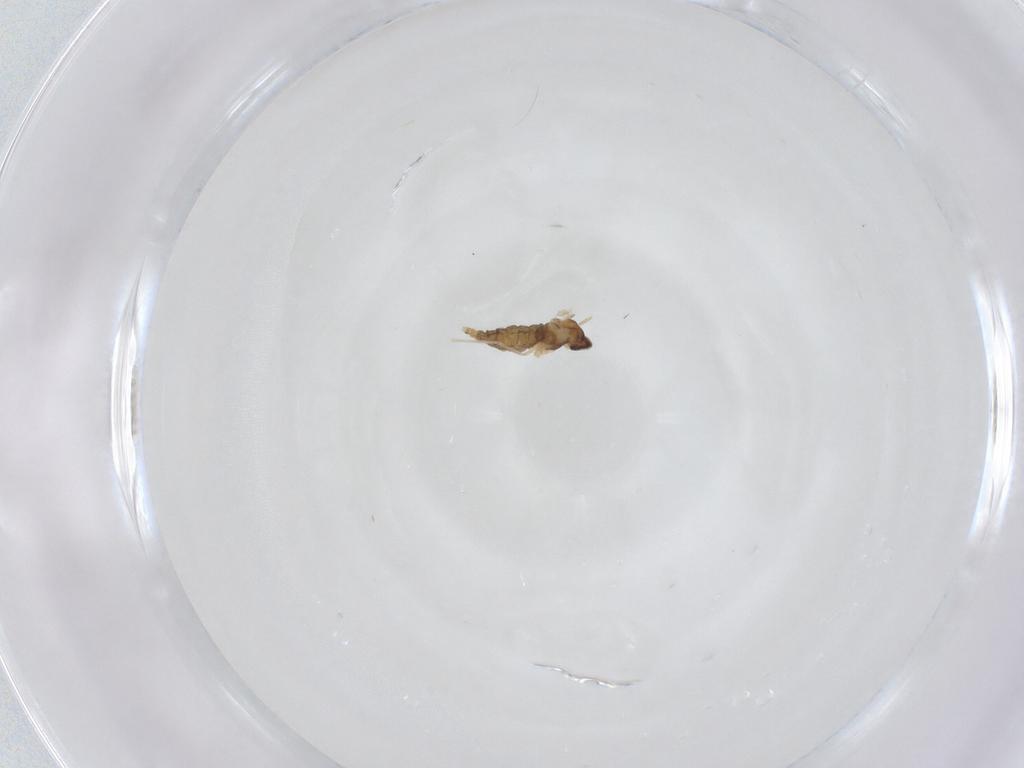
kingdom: Animalia
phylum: Arthropoda
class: Insecta
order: Diptera
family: Cecidomyiidae
